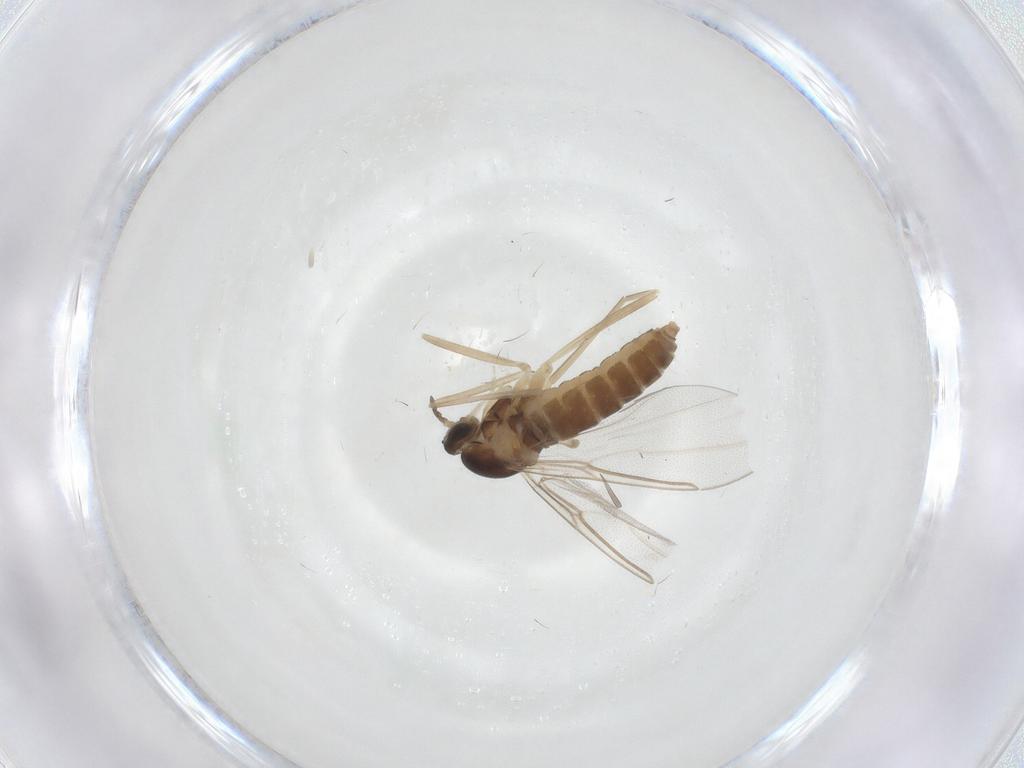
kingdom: Animalia
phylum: Arthropoda
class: Insecta
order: Diptera
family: Cecidomyiidae
